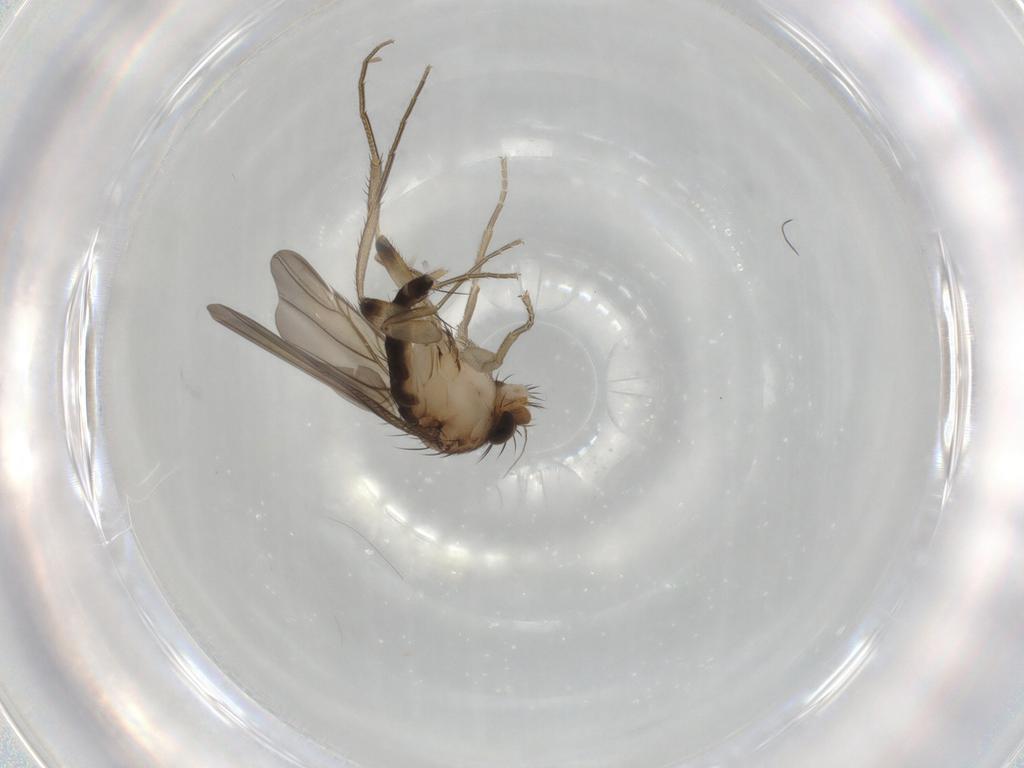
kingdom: Animalia
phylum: Arthropoda
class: Insecta
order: Diptera
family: Phoridae
